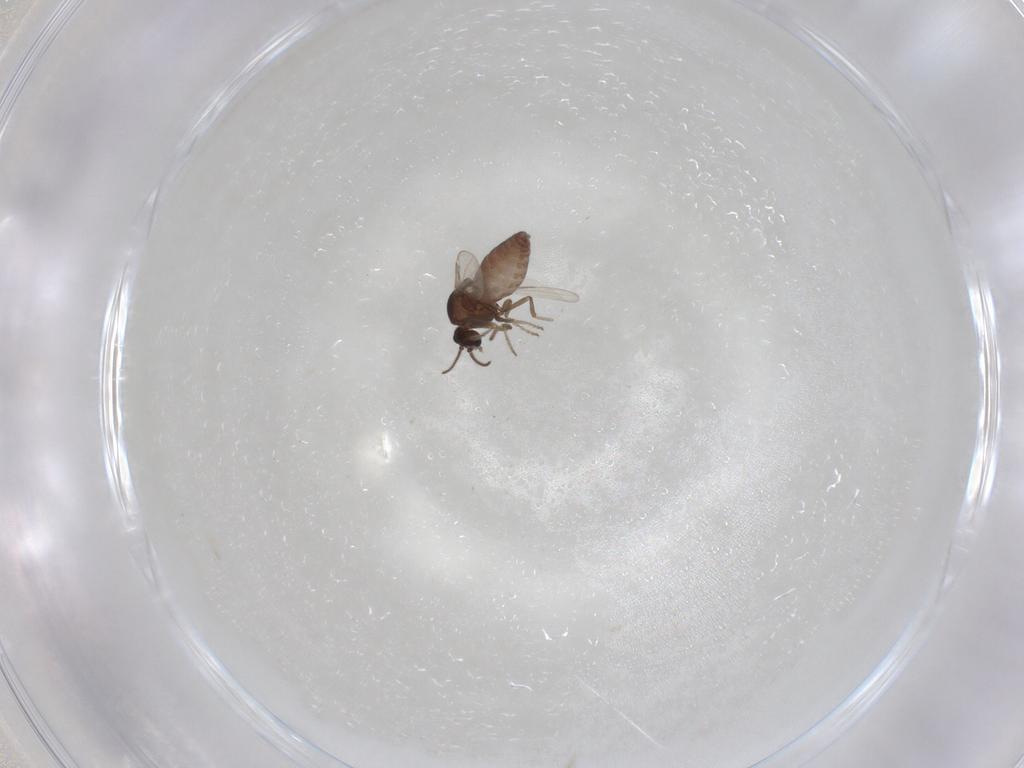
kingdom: Animalia
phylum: Arthropoda
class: Insecta
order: Diptera
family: Ceratopogonidae
